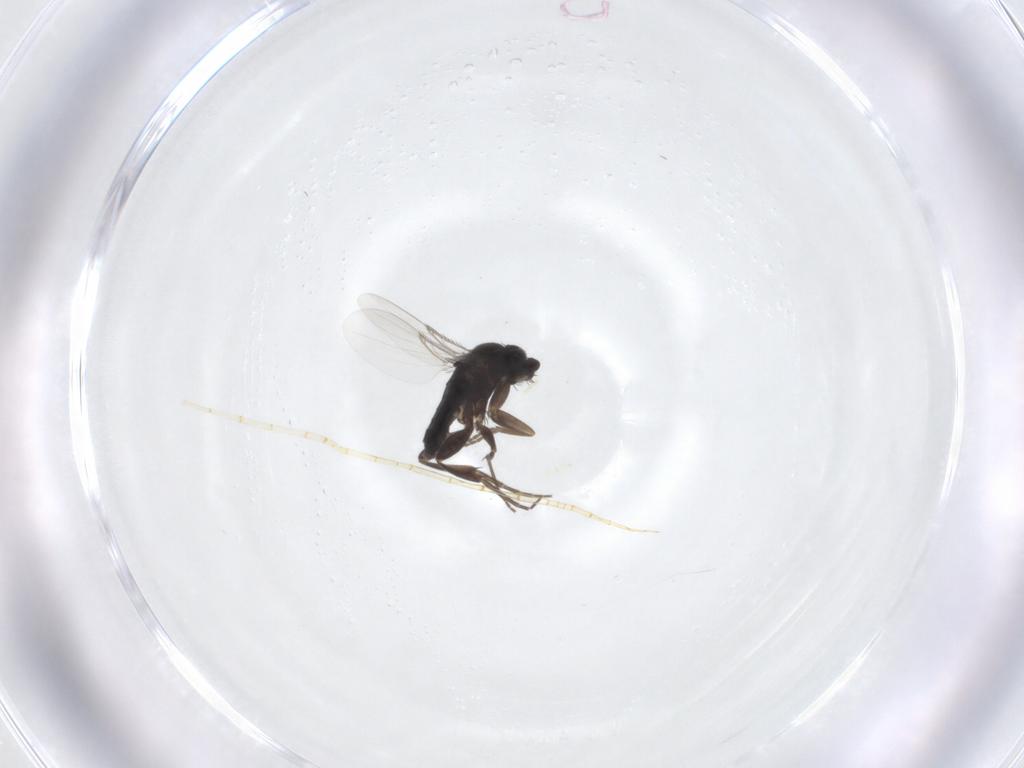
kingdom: Animalia
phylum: Arthropoda
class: Insecta
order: Diptera
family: Phoridae
